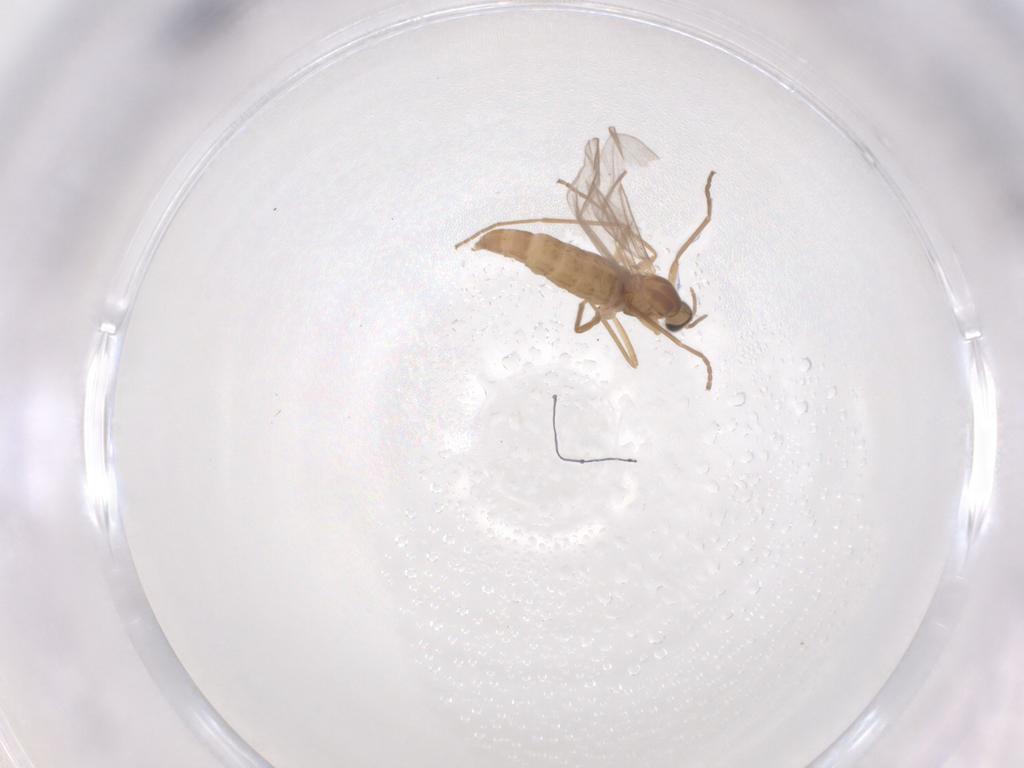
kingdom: Animalia
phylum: Arthropoda
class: Insecta
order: Diptera
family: Cecidomyiidae
